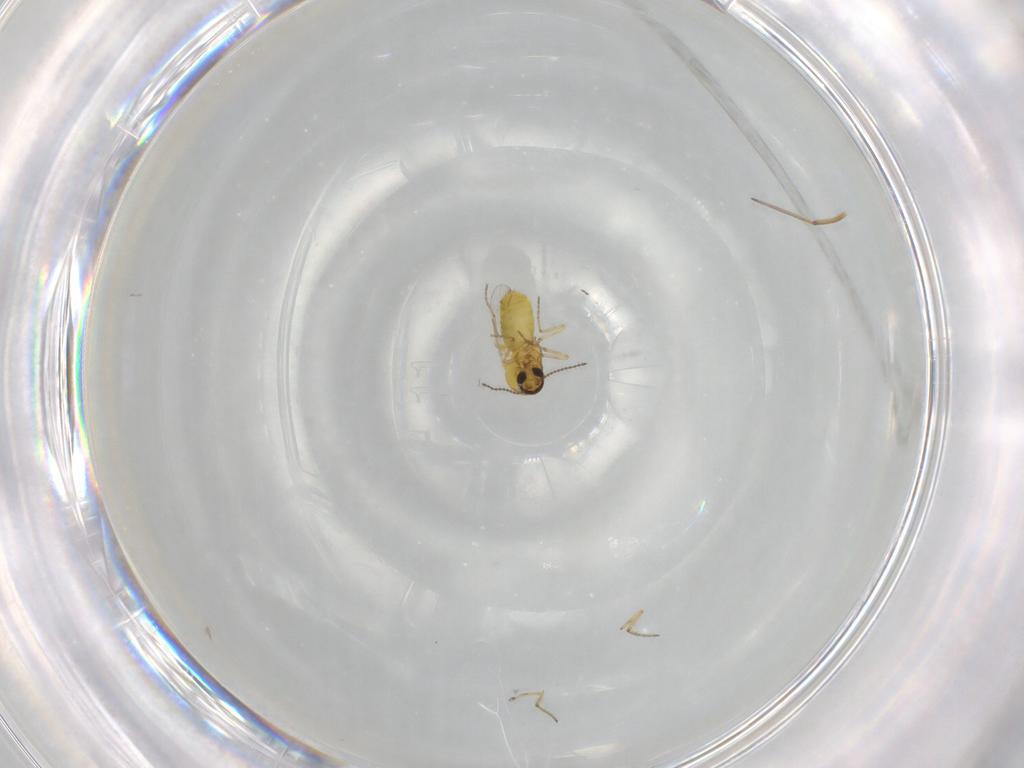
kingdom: Animalia
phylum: Arthropoda
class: Insecta
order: Diptera
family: Ceratopogonidae
